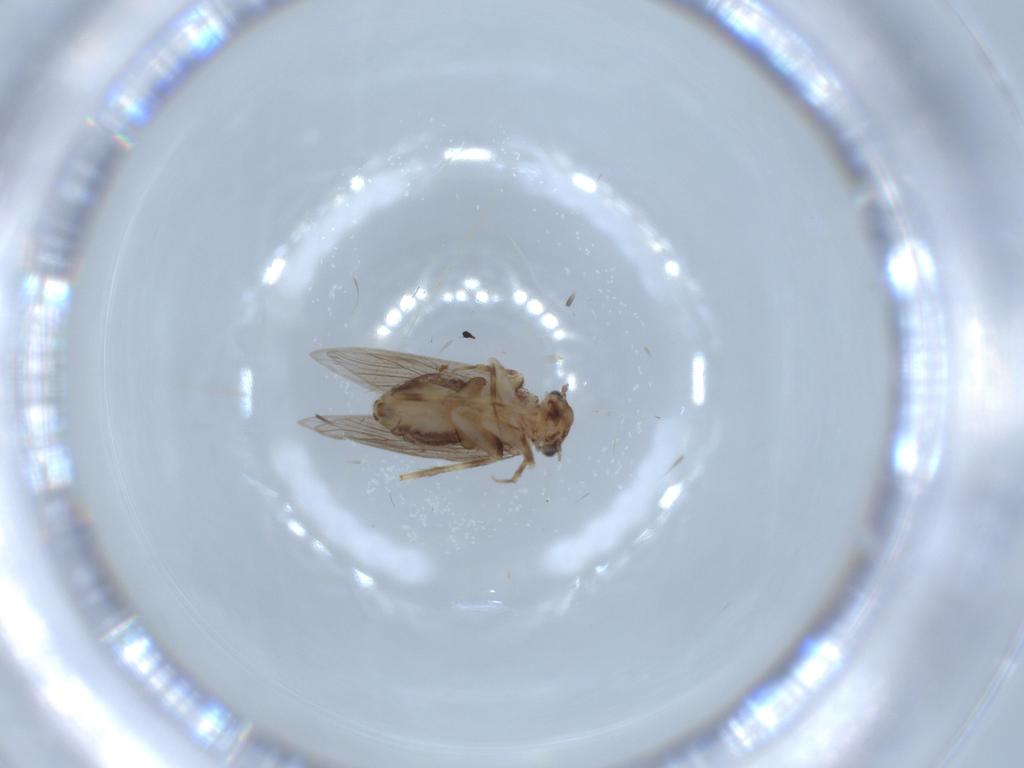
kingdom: Animalia
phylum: Arthropoda
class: Insecta
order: Psocodea
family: Lepidopsocidae
